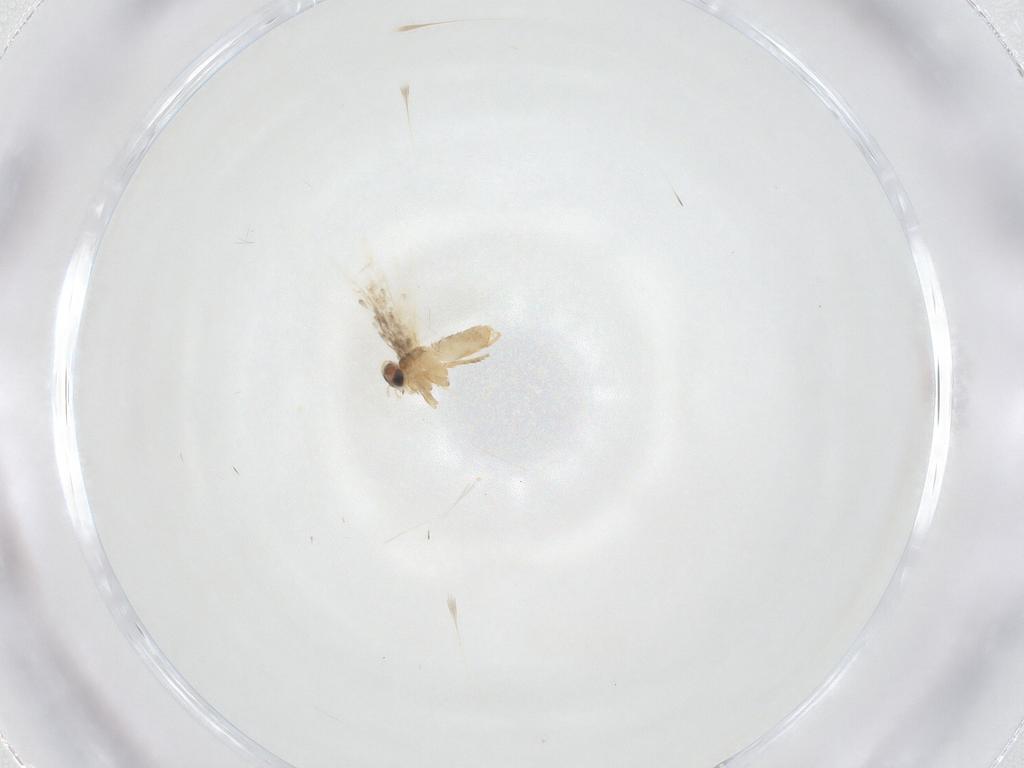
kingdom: Animalia
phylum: Arthropoda
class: Insecta
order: Lepidoptera
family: Nepticulidae
